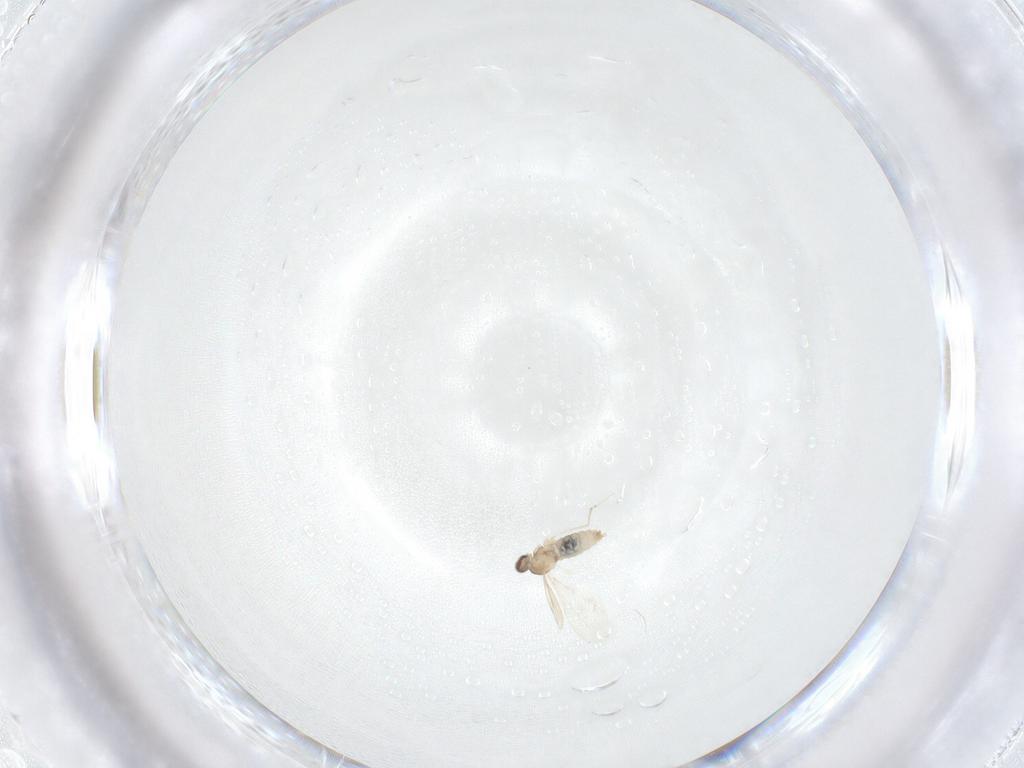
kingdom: Animalia
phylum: Arthropoda
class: Insecta
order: Diptera
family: Cecidomyiidae
